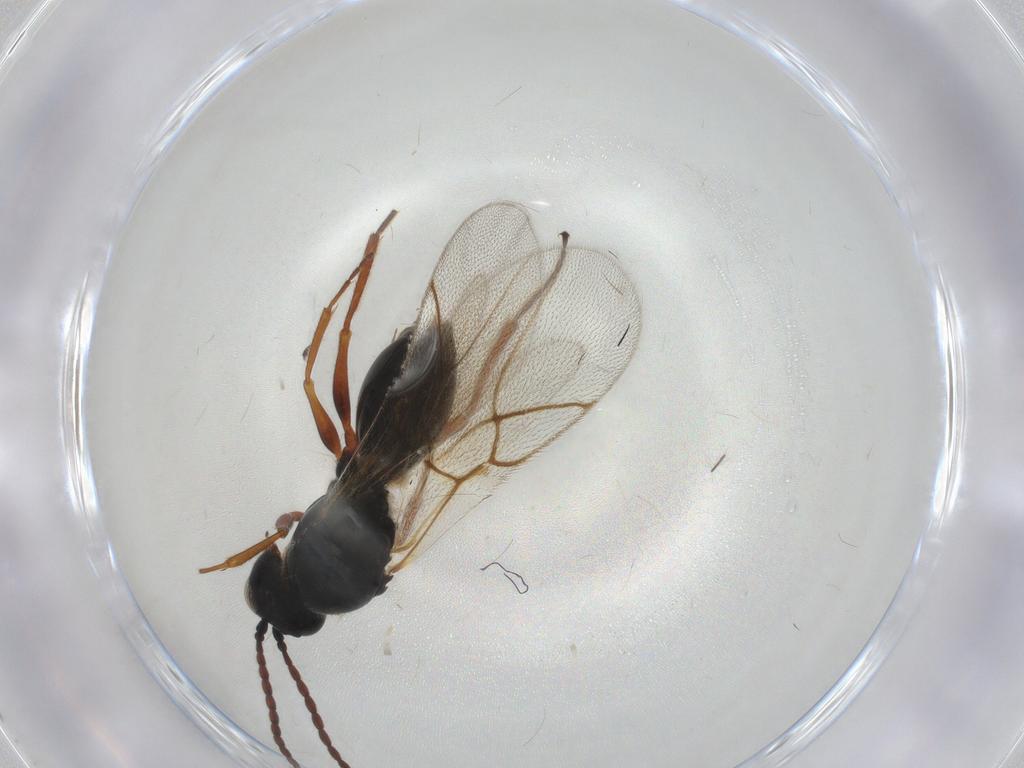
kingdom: Animalia
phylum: Arthropoda
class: Insecta
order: Hymenoptera
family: Figitidae
